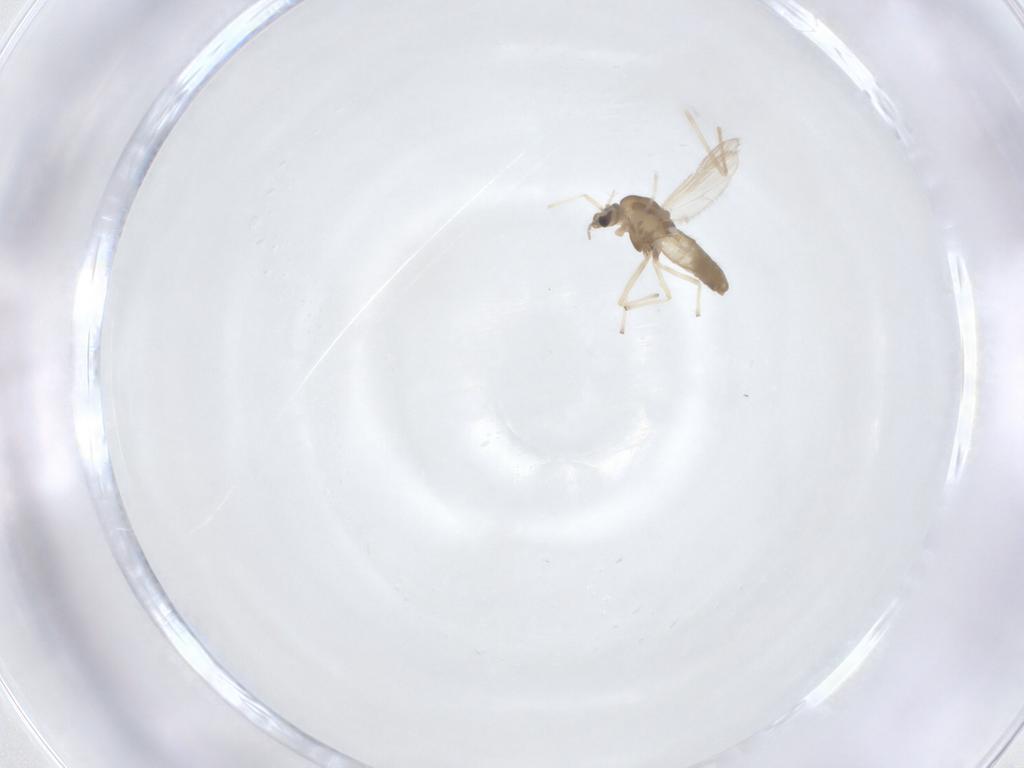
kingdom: Animalia
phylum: Arthropoda
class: Insecta
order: Diptera
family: Chironomidae
